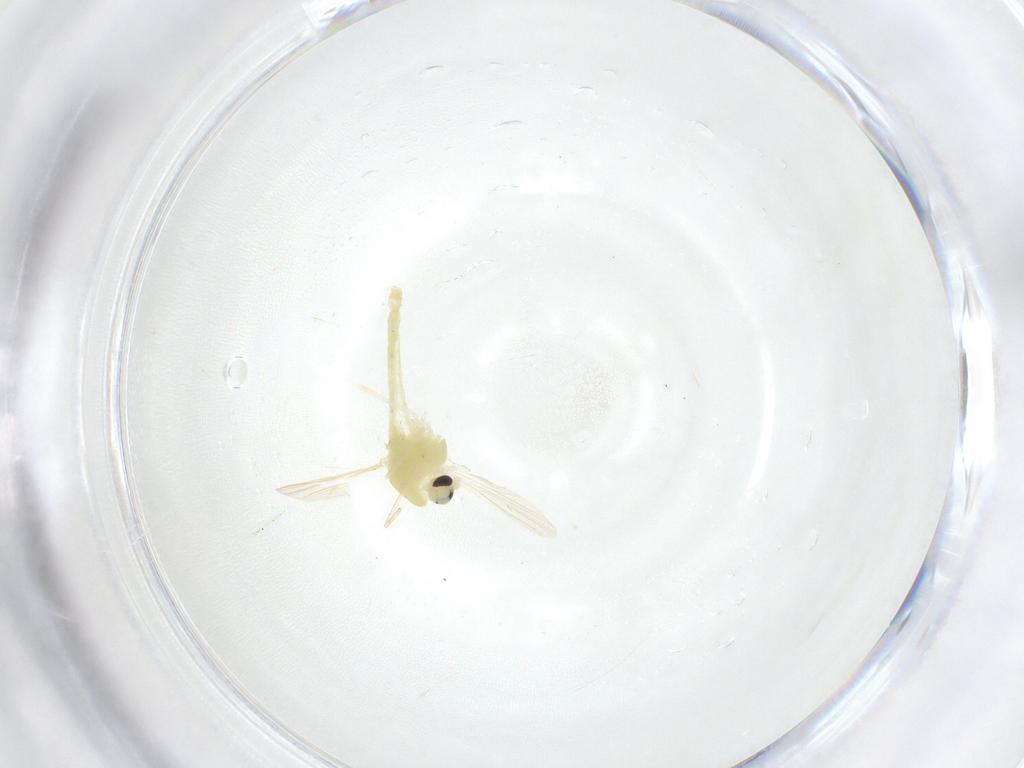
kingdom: Animalia
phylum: Arthropoda
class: Insecta
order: Diptera
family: Chironomidae
